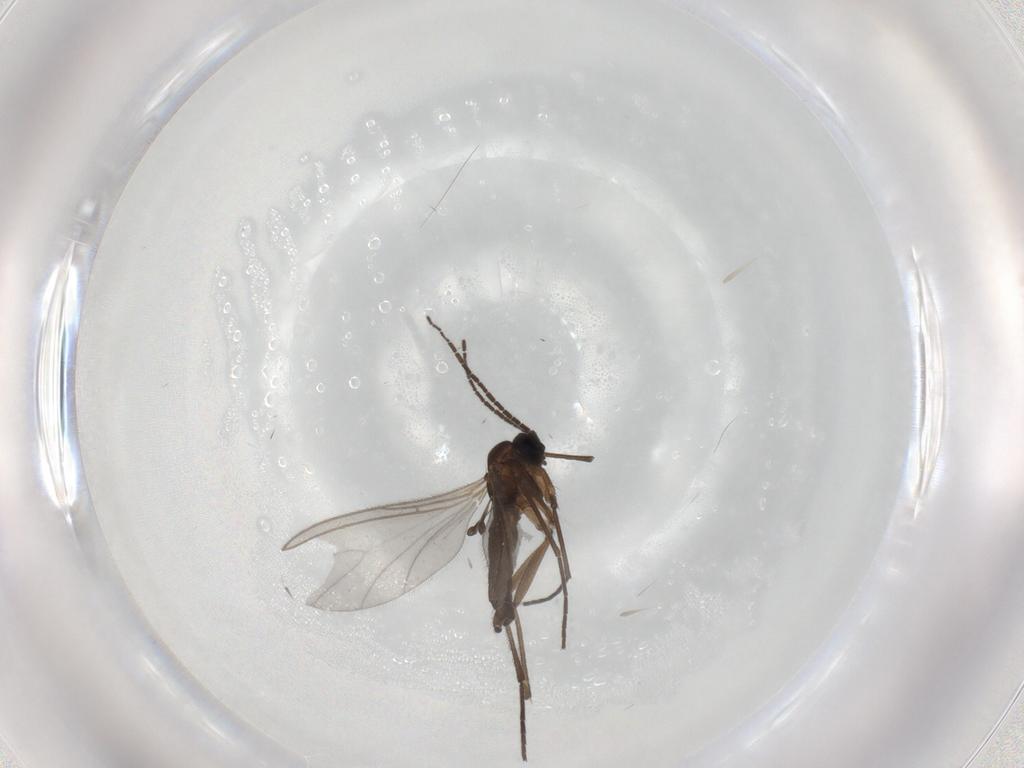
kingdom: Animalia
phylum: Arthropoda
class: Insecta
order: Diptera
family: Sciaridae
